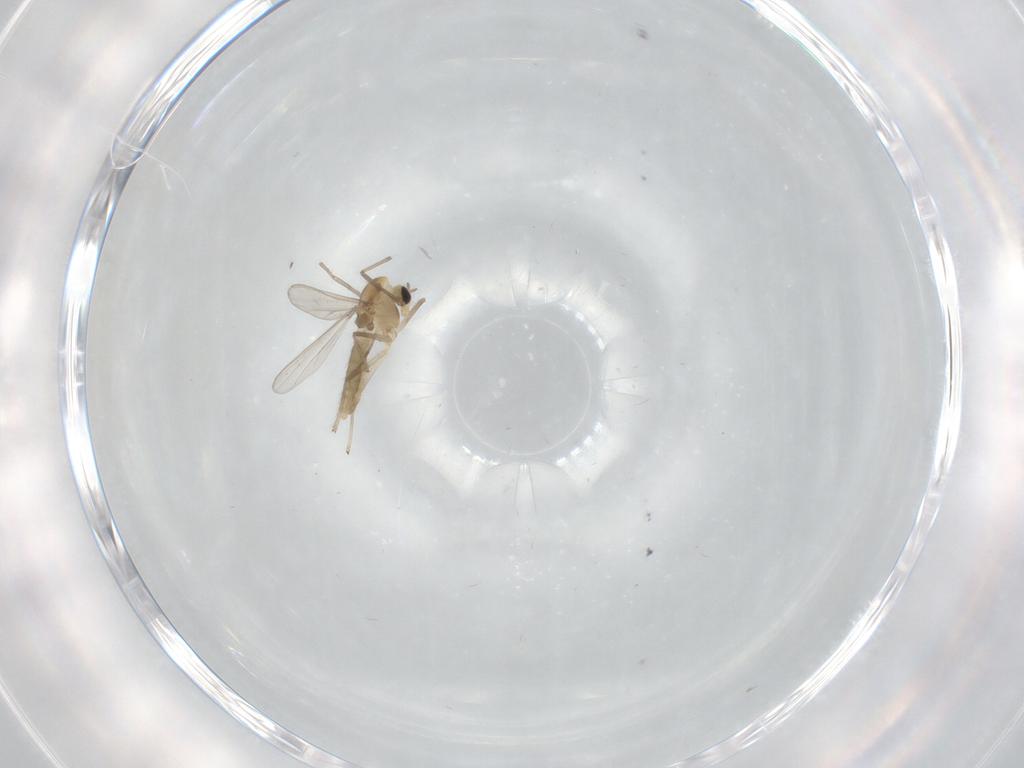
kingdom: Animalia
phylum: Arthropoda
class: Insecta
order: Diptera
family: Chironomidae
